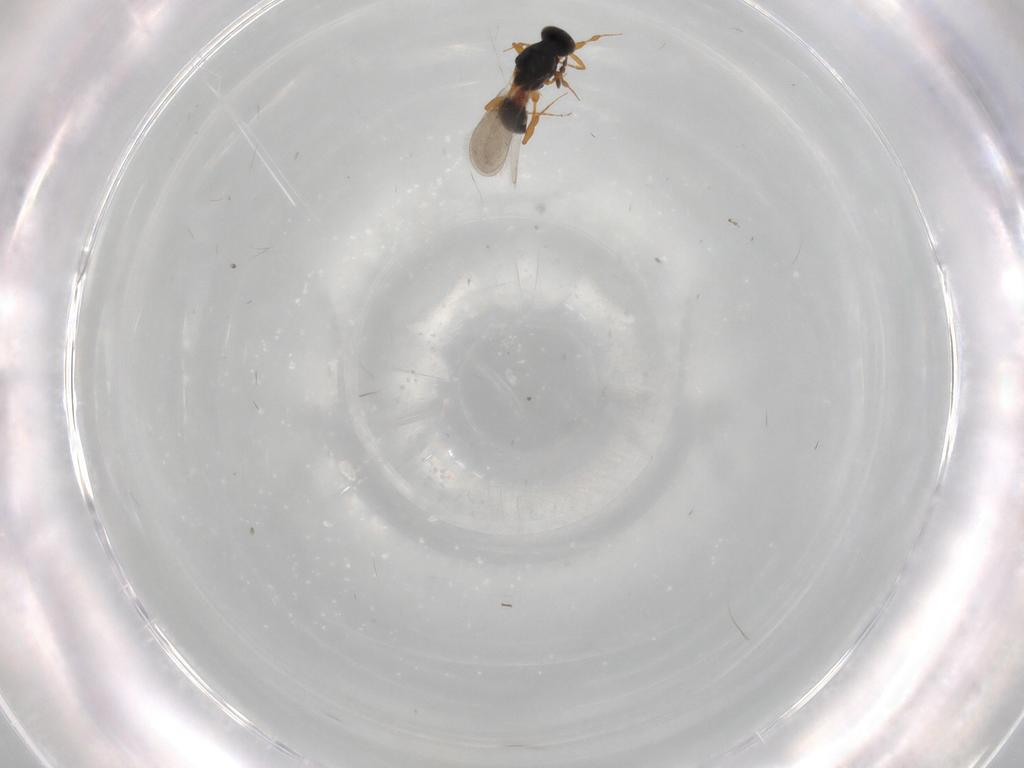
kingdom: Animalia
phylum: Arthropoda
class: Insecta
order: Hymenoptera
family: Platygastridae
